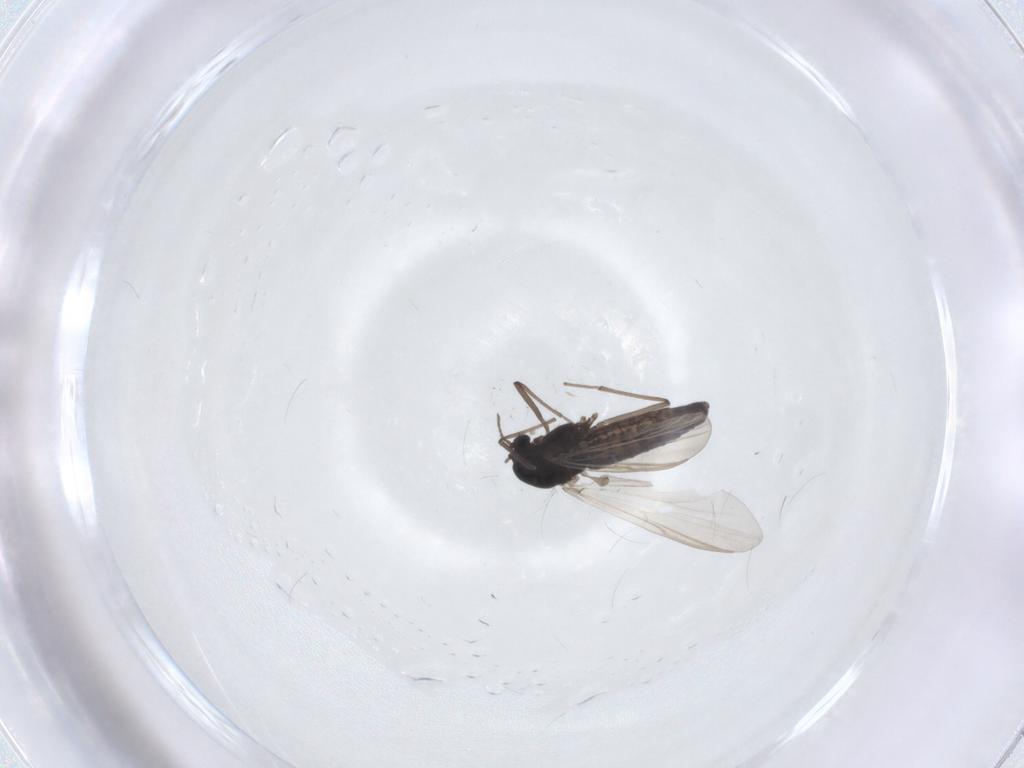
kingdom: Animalia
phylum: Arthropoda
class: Insecta
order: Diptera
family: Chironomidae
